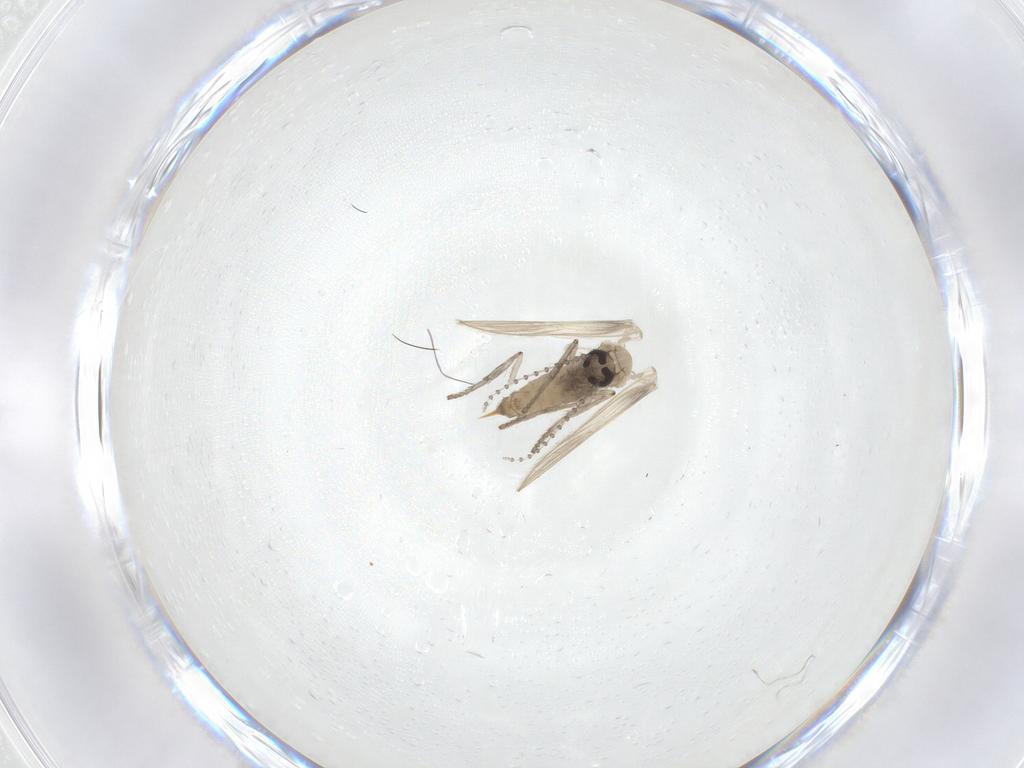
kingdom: Animalia
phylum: Arthropoda
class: Insecta
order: Diptera
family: Psychodidae
